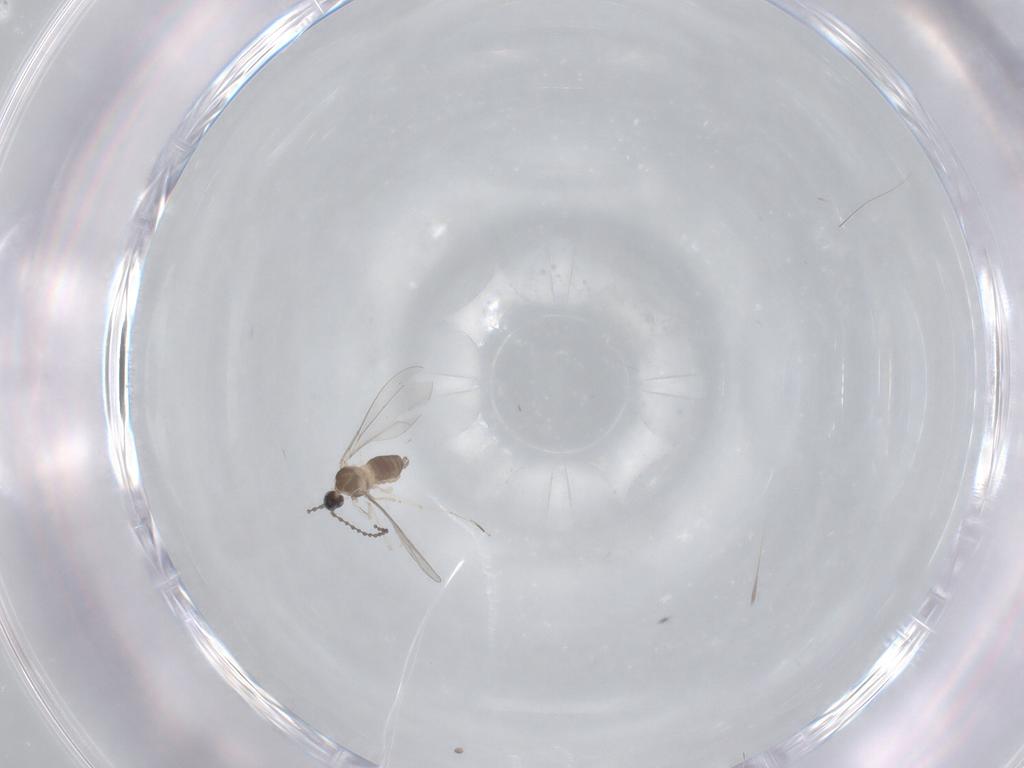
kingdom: Animalia
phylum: Arthropoda
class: Insecta
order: Diptera
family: Cecidomyiidae
